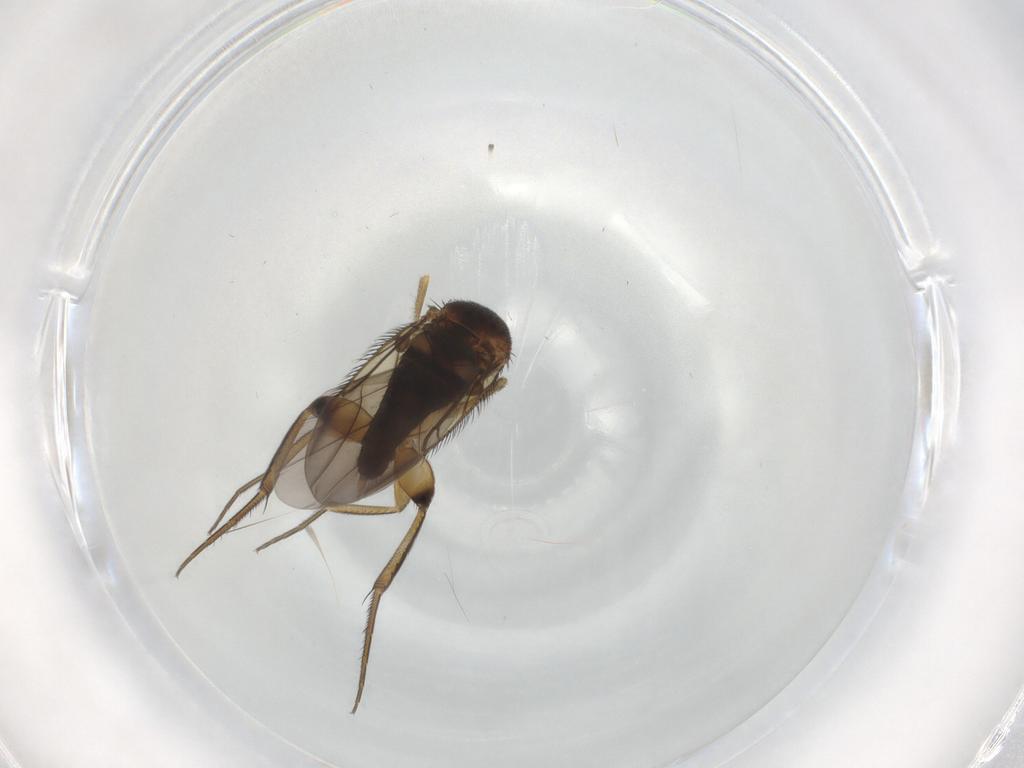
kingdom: Animalia
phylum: Arthropoda
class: Insecta
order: Diptera
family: Phoridae
